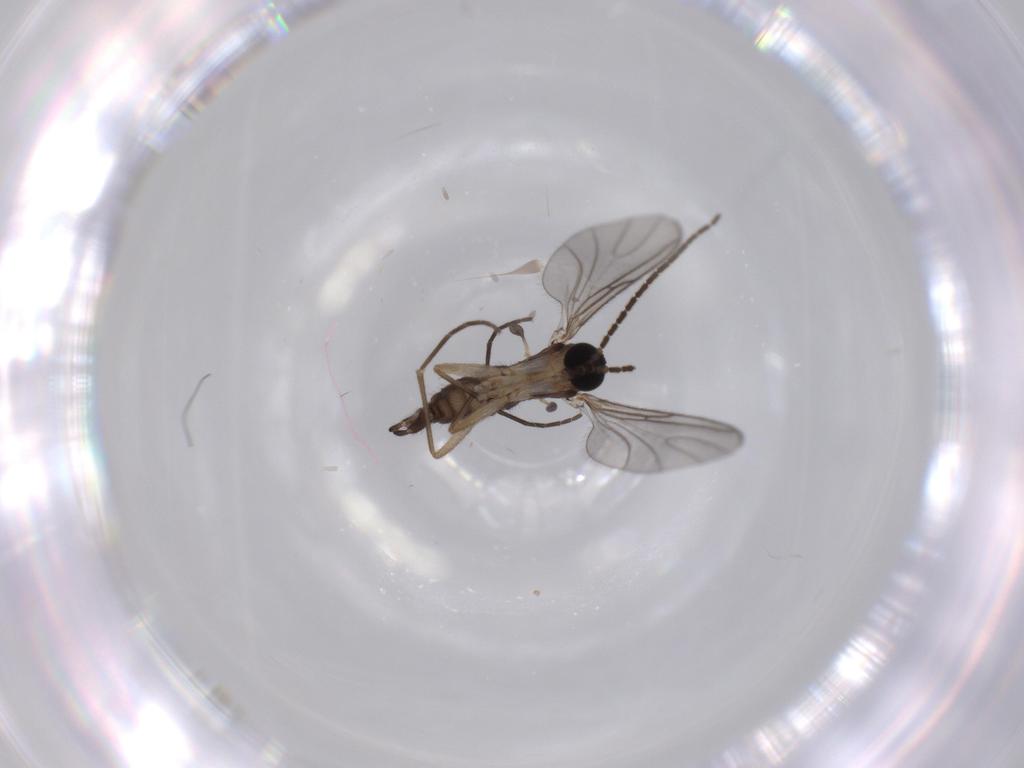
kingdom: Animalia
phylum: Arthropoda
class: Insecta
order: Diptera
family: Sciaridae
